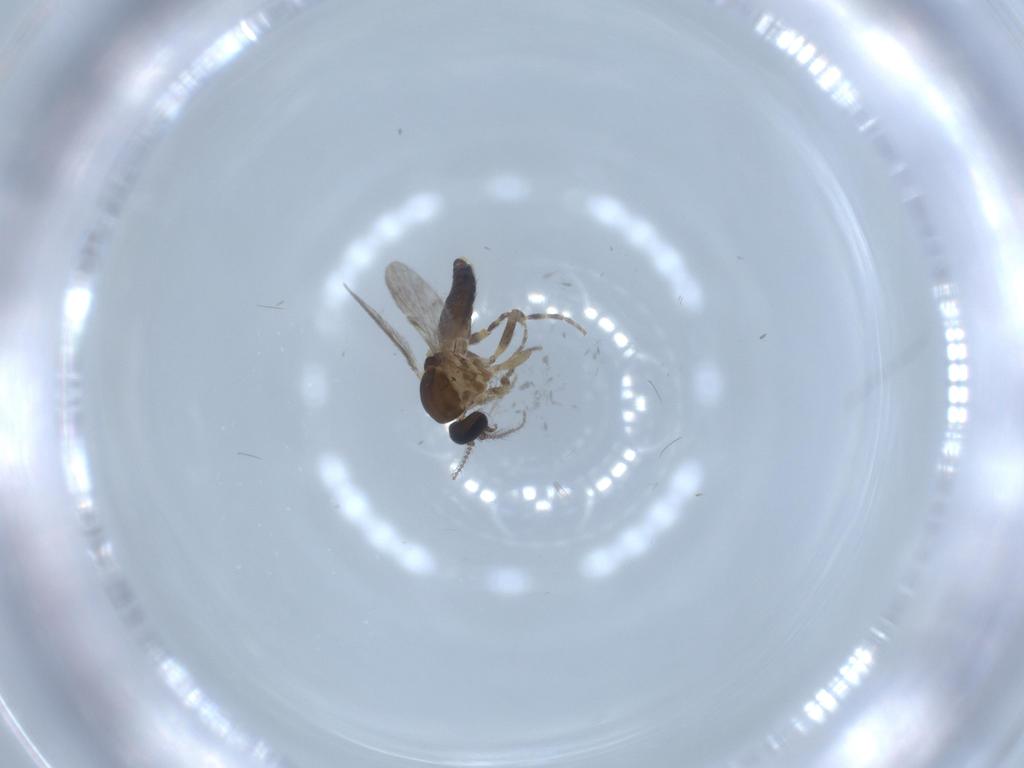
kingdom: Animalia
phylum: Arthropoda
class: Insecta
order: Diptera
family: Ceratopogonidae
